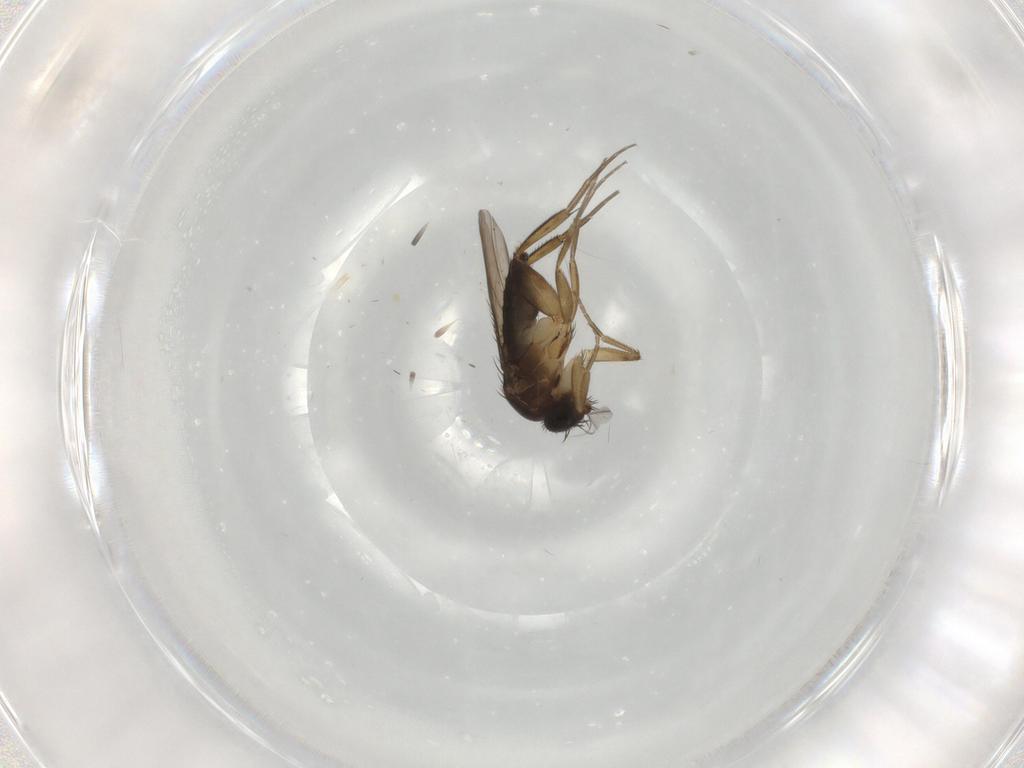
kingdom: Animalia
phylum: Arthropoda
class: Insecta
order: Diptera
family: Phoridae
